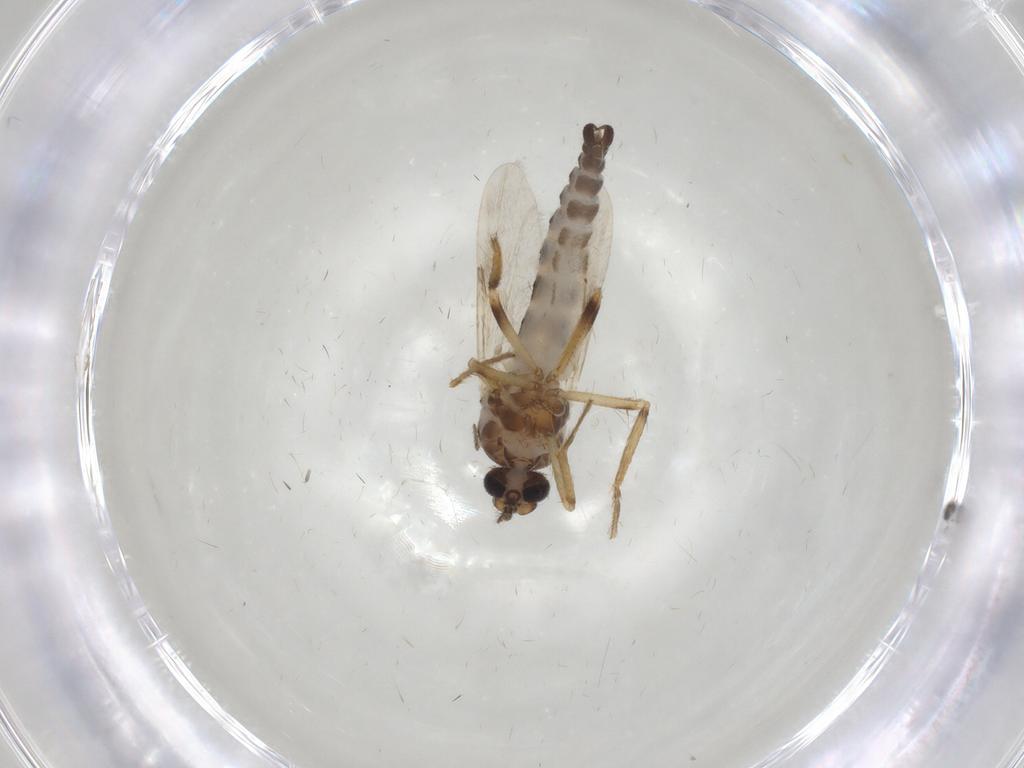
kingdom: Animalia
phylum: Arthropoda
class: Insecta
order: Diptera
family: Ceratopogonidae
